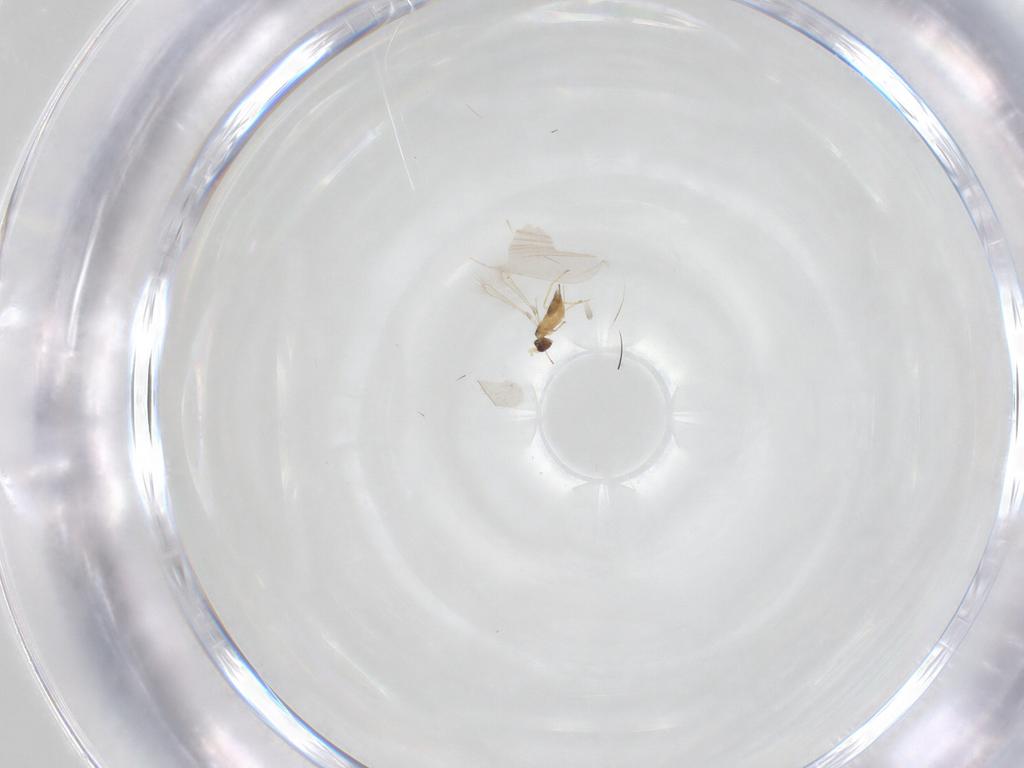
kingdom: Animalia
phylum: Arthropoda
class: Insecta
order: Hymenoptera
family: Mymaridae
